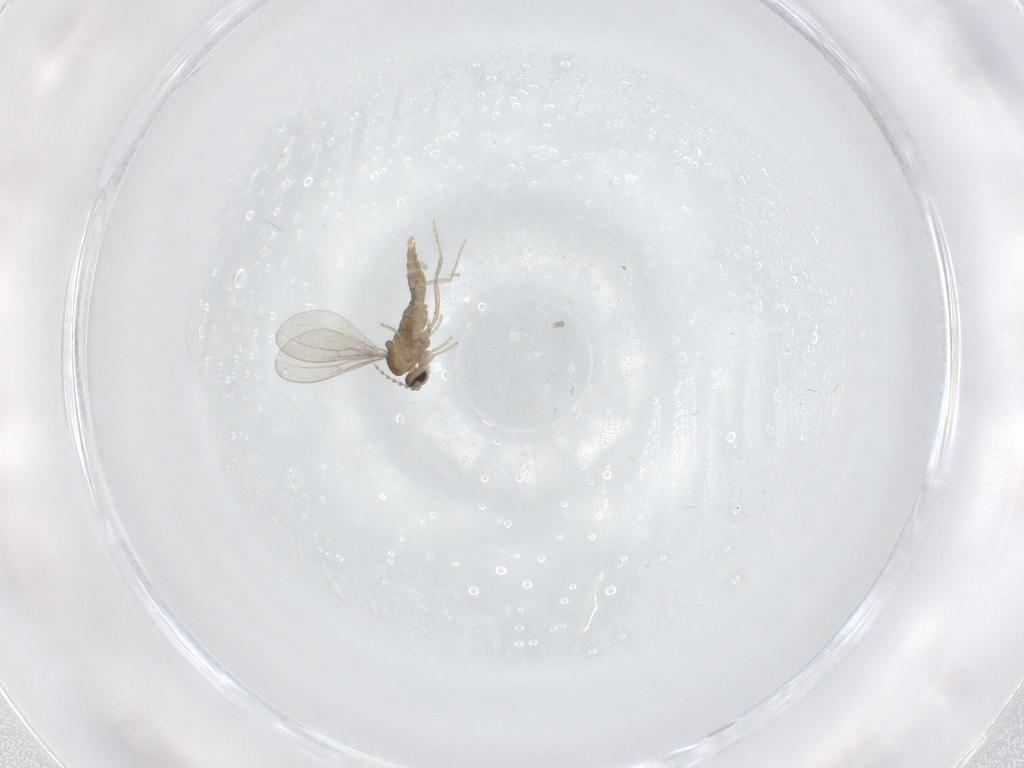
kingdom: Animalia
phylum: Arthropoda
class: Insecta
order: Diptera
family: Cecidomyiidae
